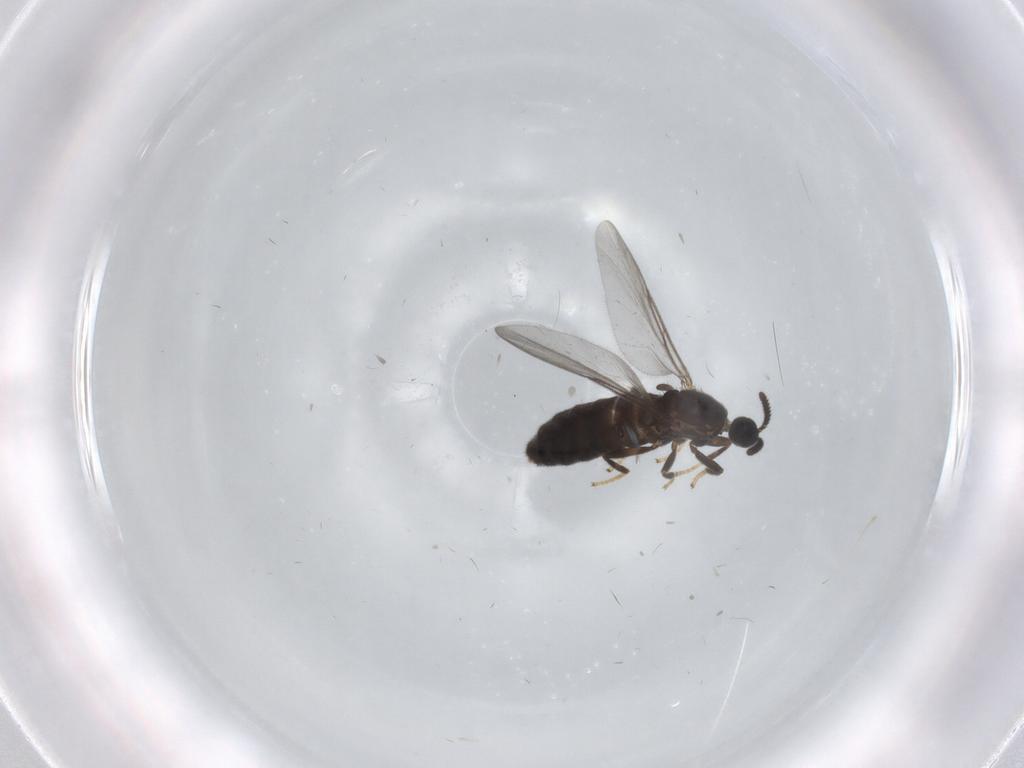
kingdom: Animalia
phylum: Arthropoda
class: Insecta
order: Diptera
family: Scatopsidae
